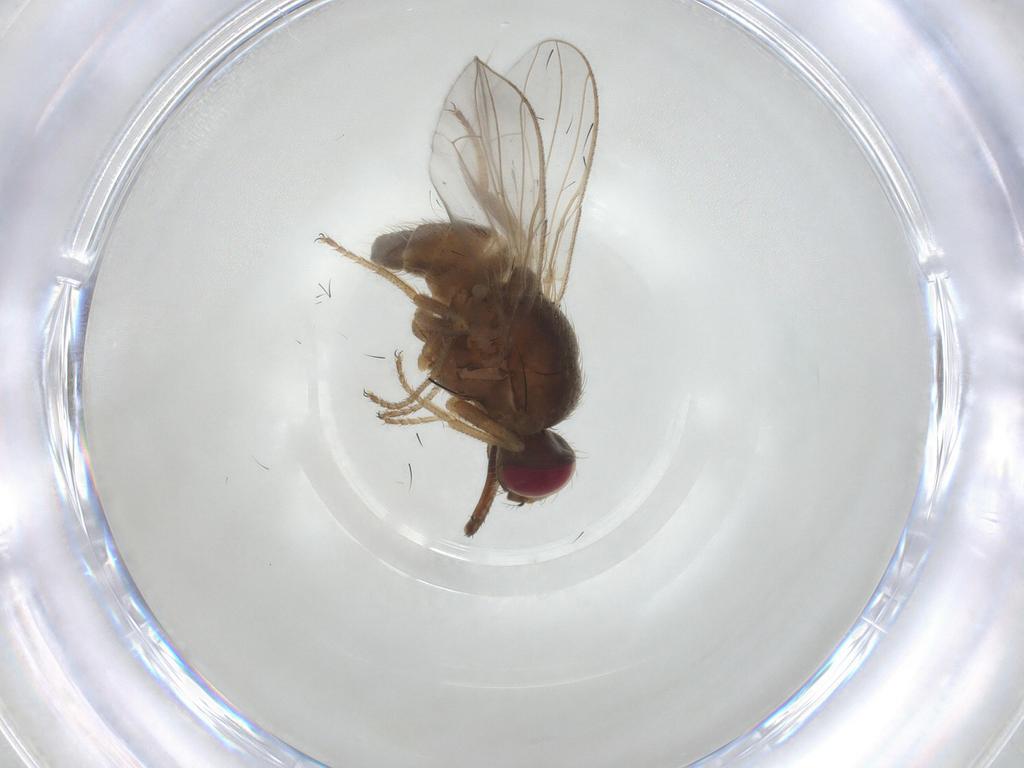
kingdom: Animalia
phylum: Arthropoda
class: Insecta
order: Diptera
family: Muscidae
